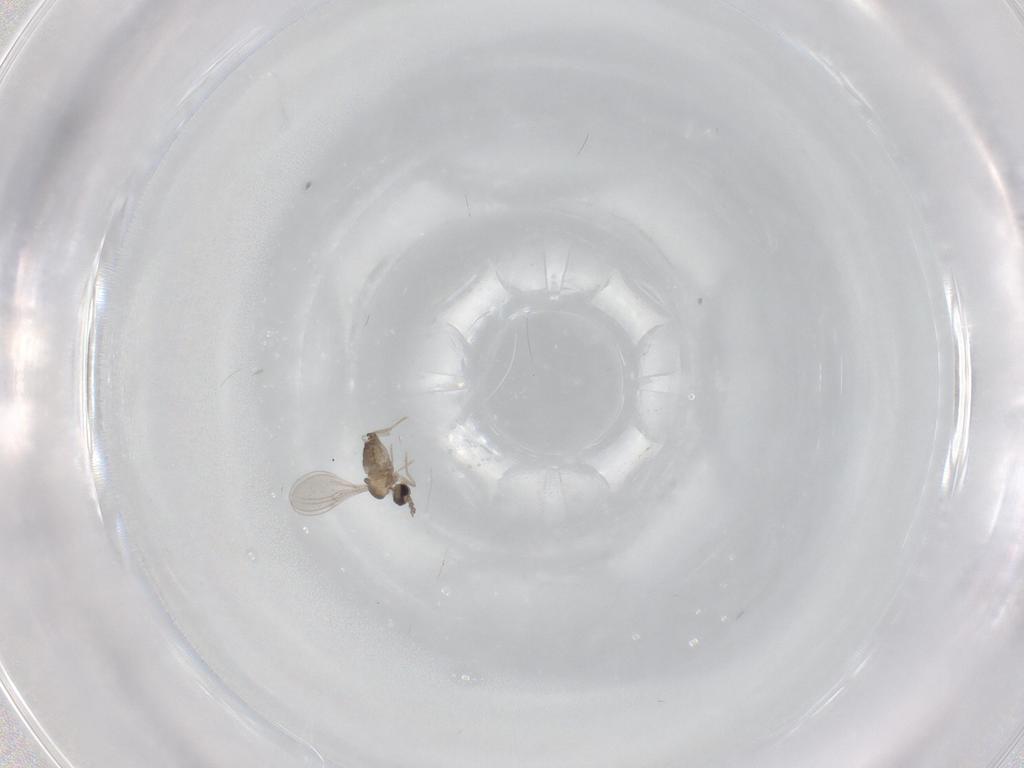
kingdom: Animalia
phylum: Arthropoda
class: Insecta
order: Diptera
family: Cecidomyiidae
